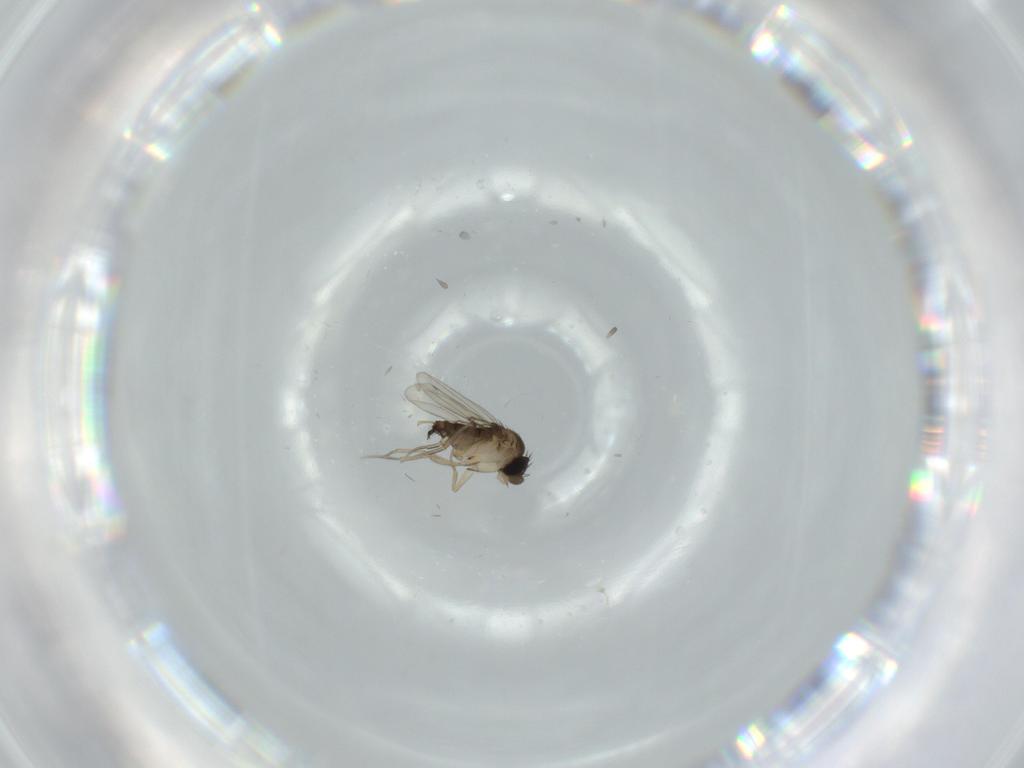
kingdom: Animalia
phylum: Arthropoda
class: Insecta
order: Diptera
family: Phoridae
